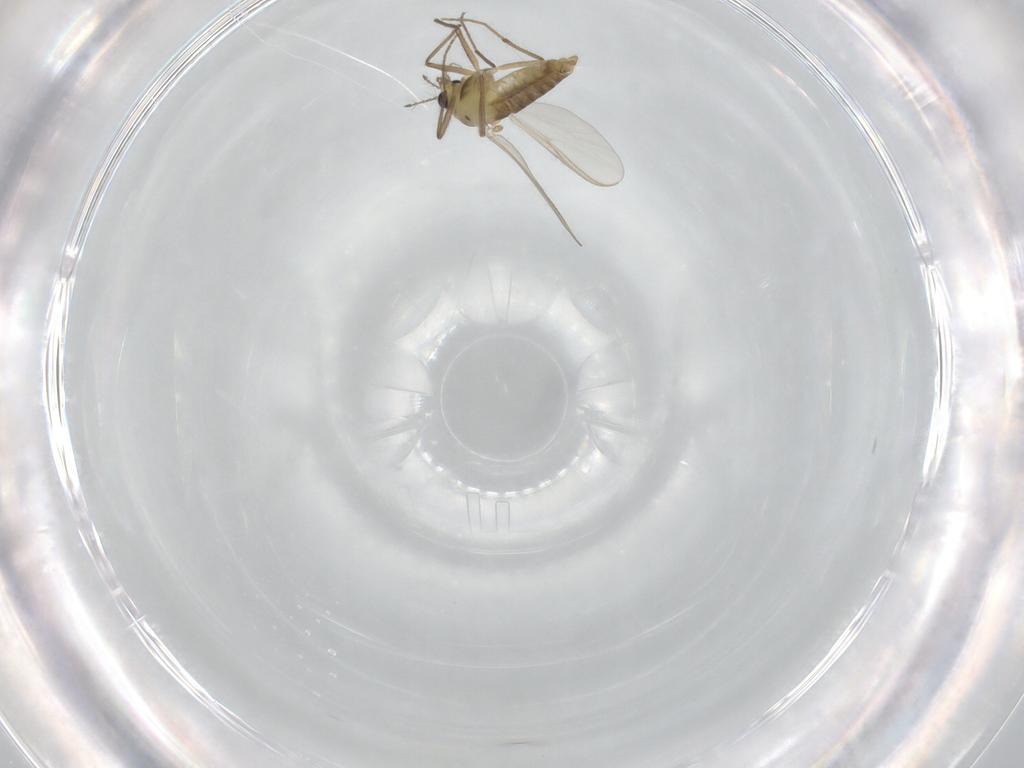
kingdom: Animalia
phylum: Arthropoda
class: Insecta
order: Diptera
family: Chironomidae
